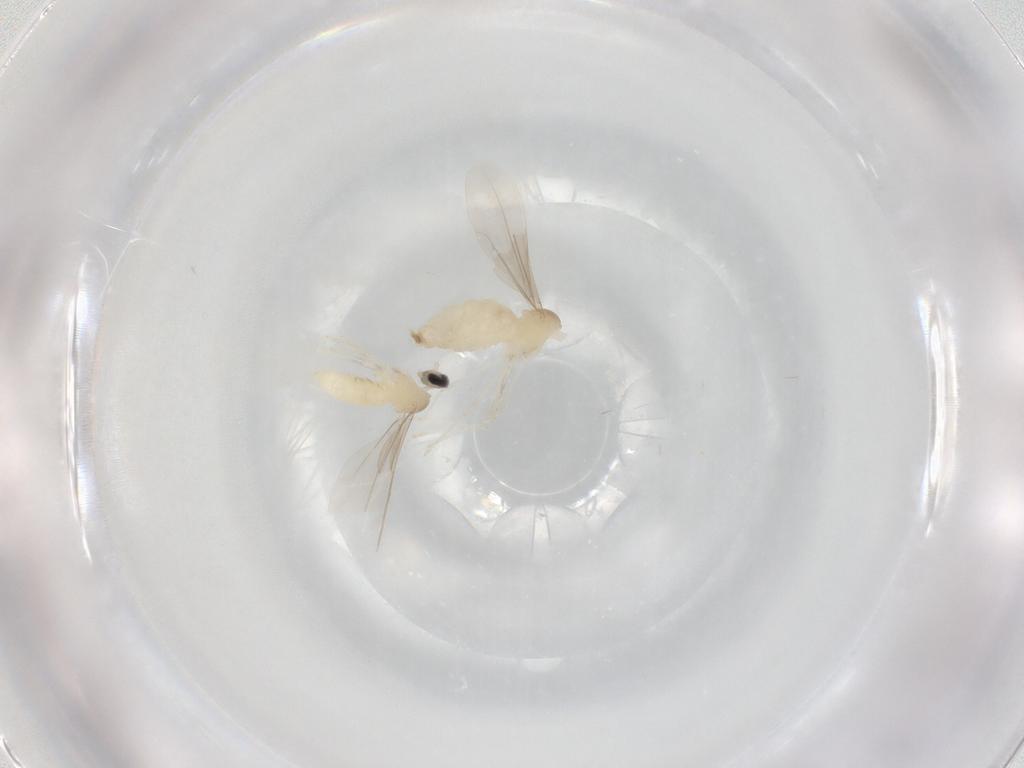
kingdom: Animalia
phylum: Arthropoda
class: Insecta
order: Diptera
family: Cecidomyiidae
